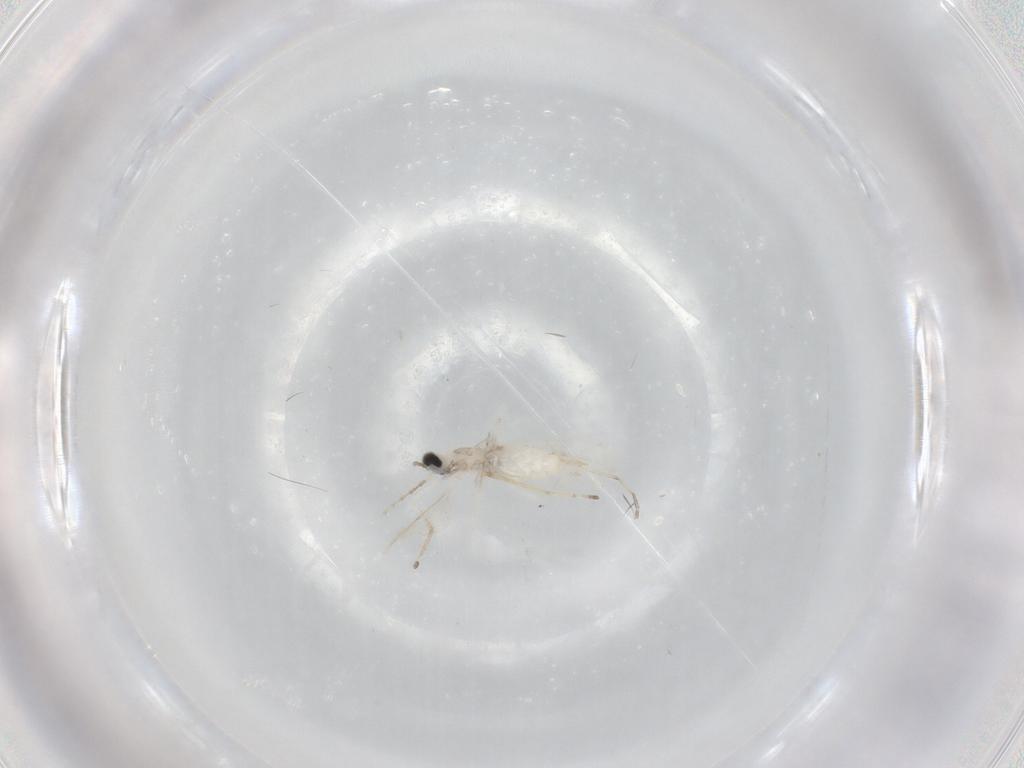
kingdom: Animalia
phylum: Arthropoda
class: Insecta
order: Diptera
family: Cecidomyiidae
